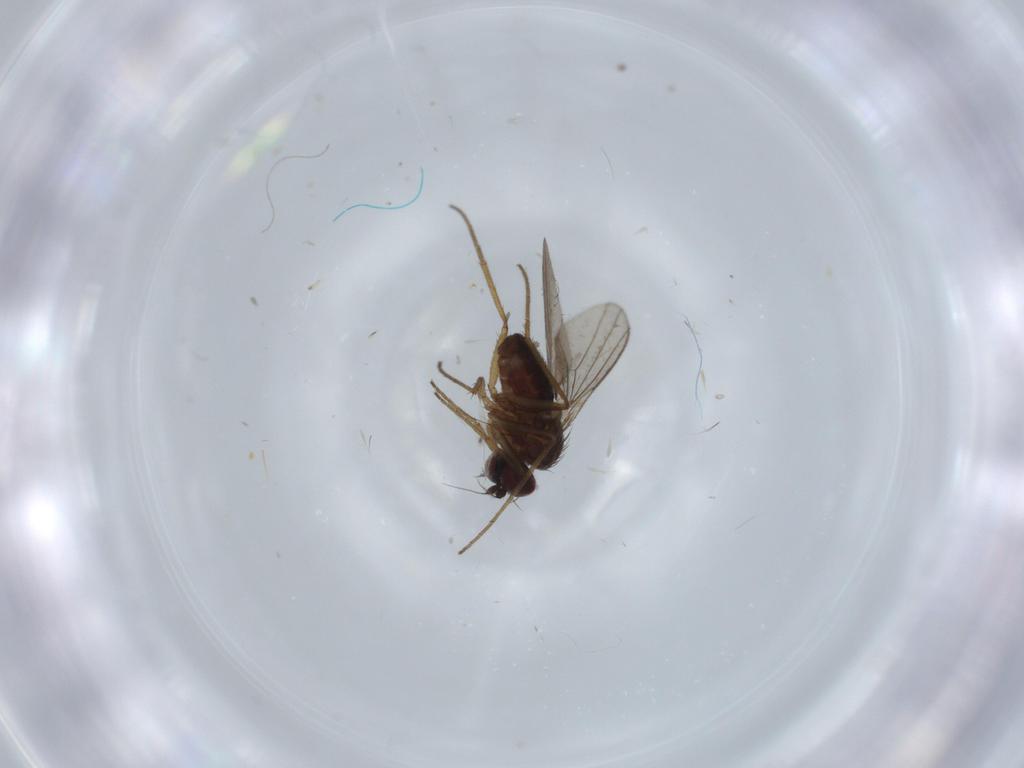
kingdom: Animalia
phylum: Arthropoda
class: Insecta
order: Diptera
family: Dolichopodidae
